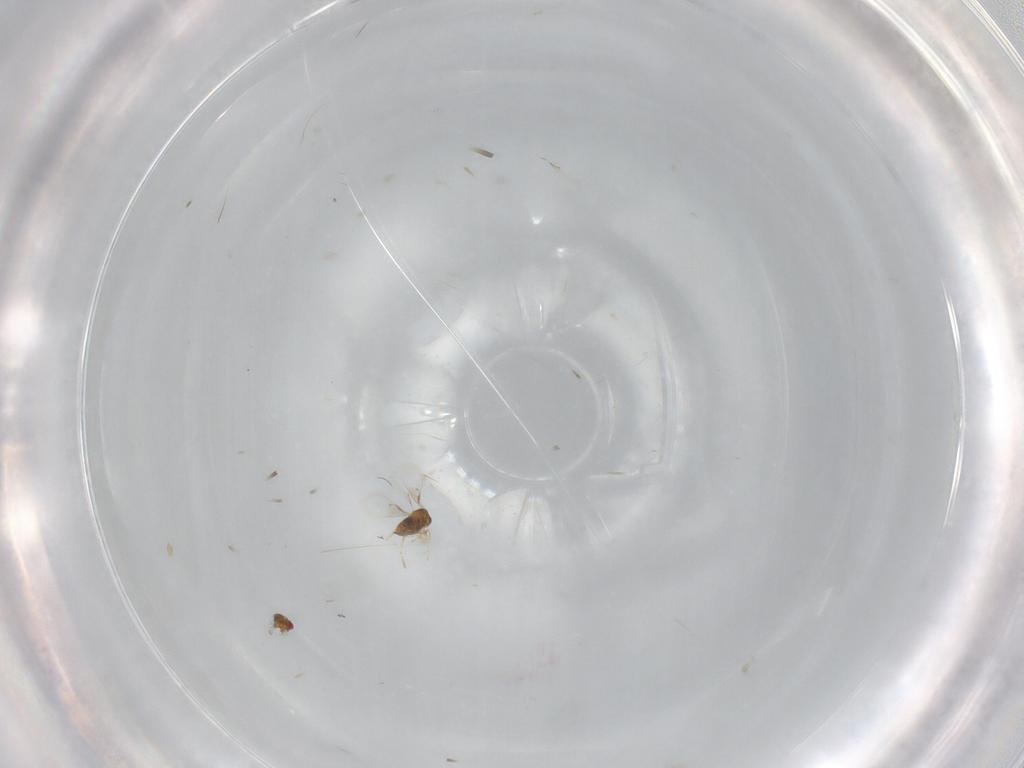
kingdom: Animalia
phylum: Arthropoda
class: Insecta
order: Hymenoptera
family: Trichogrammatidae
